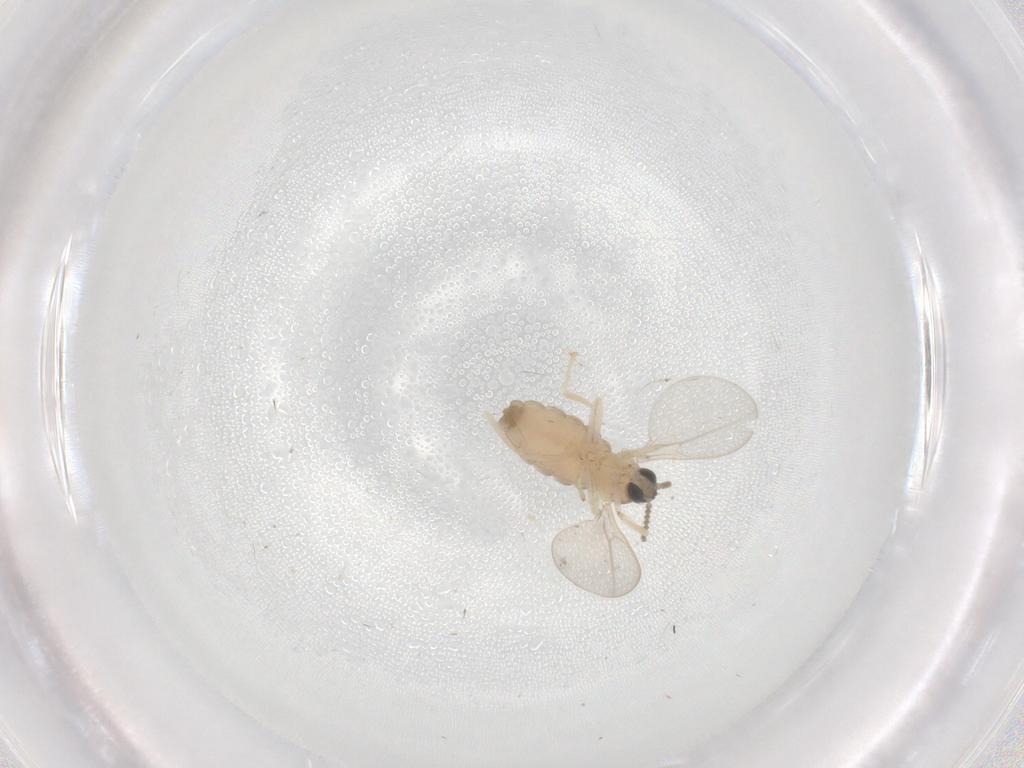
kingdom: Animalia
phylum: Arthropoda
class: Insecta
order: Diptera
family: Cecidomyiidae
